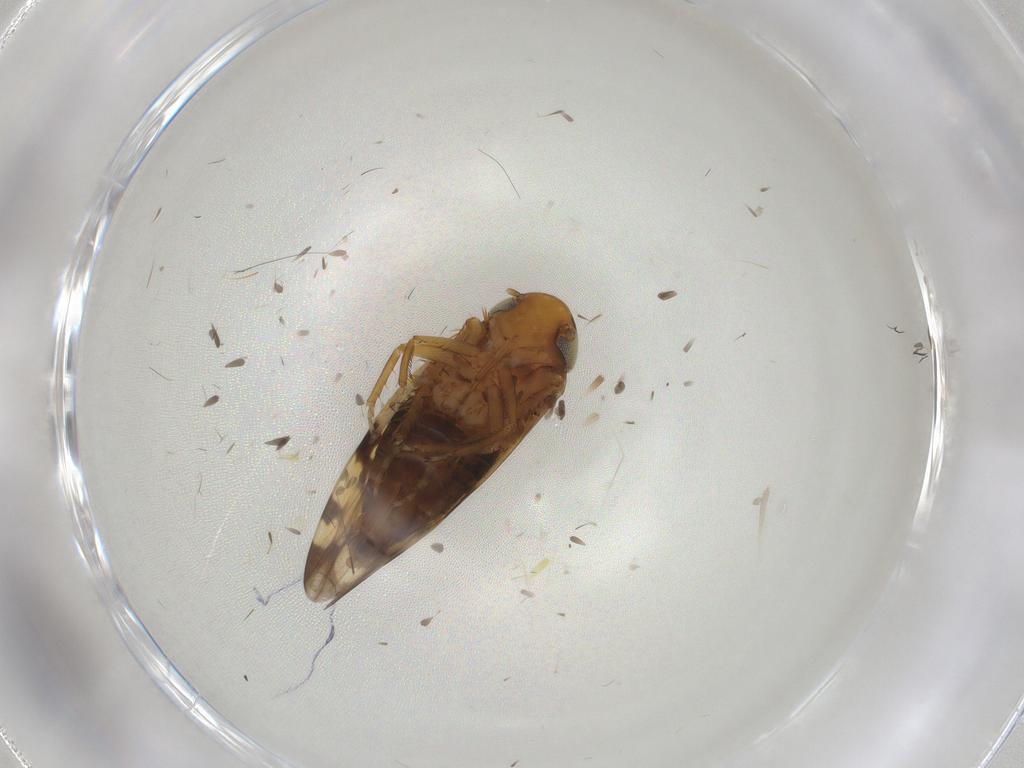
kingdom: Animalia
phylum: Arthropoda
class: Insecta
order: Hemiptera
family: Cicadellidae
